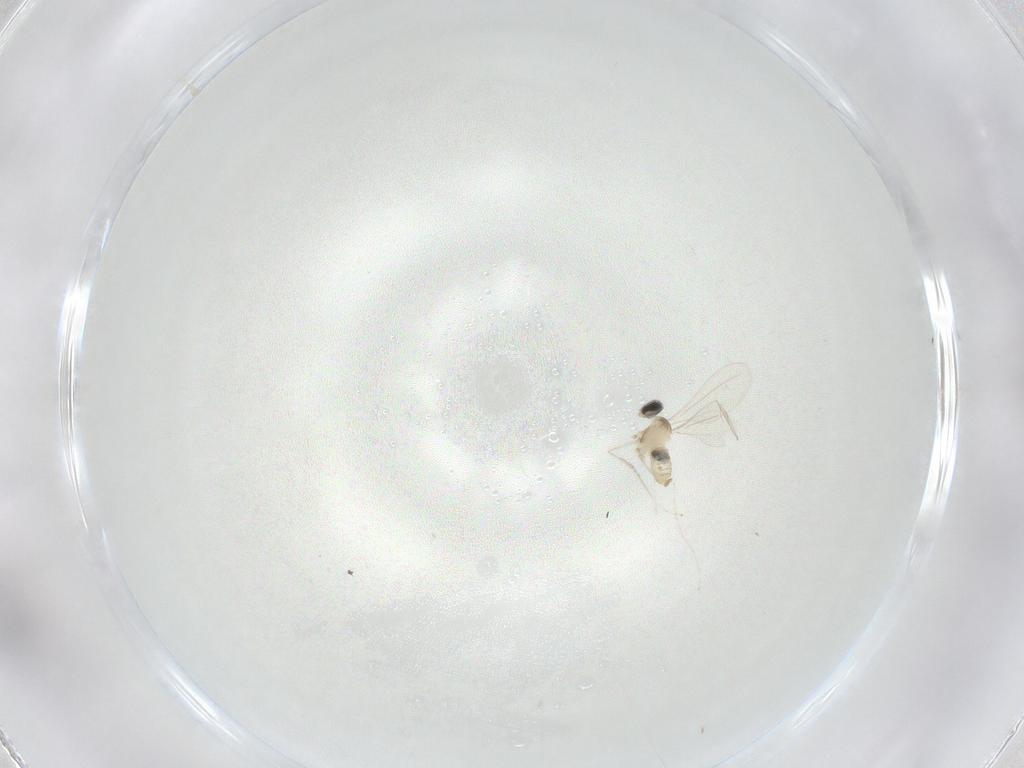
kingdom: Animalia
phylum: Arthropoda
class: Insecta
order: Diptera
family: Cecidomyiidae
